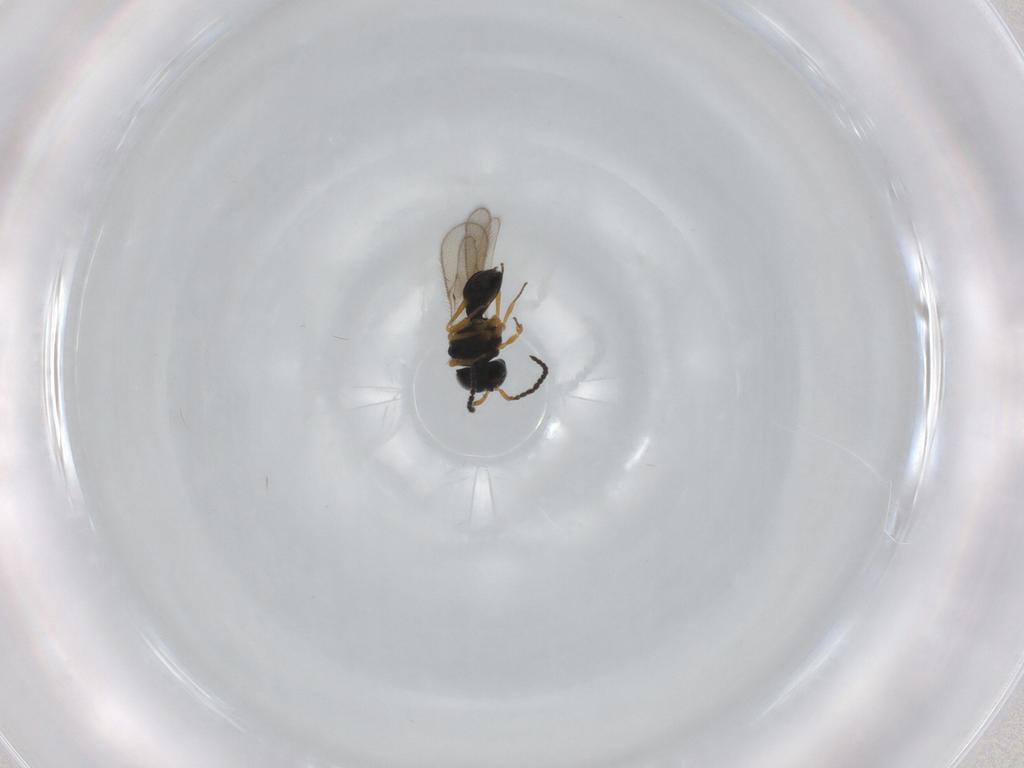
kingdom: Animalia
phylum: Arthropoda
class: Insecta
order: Hymenoptera
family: Scelionidae
